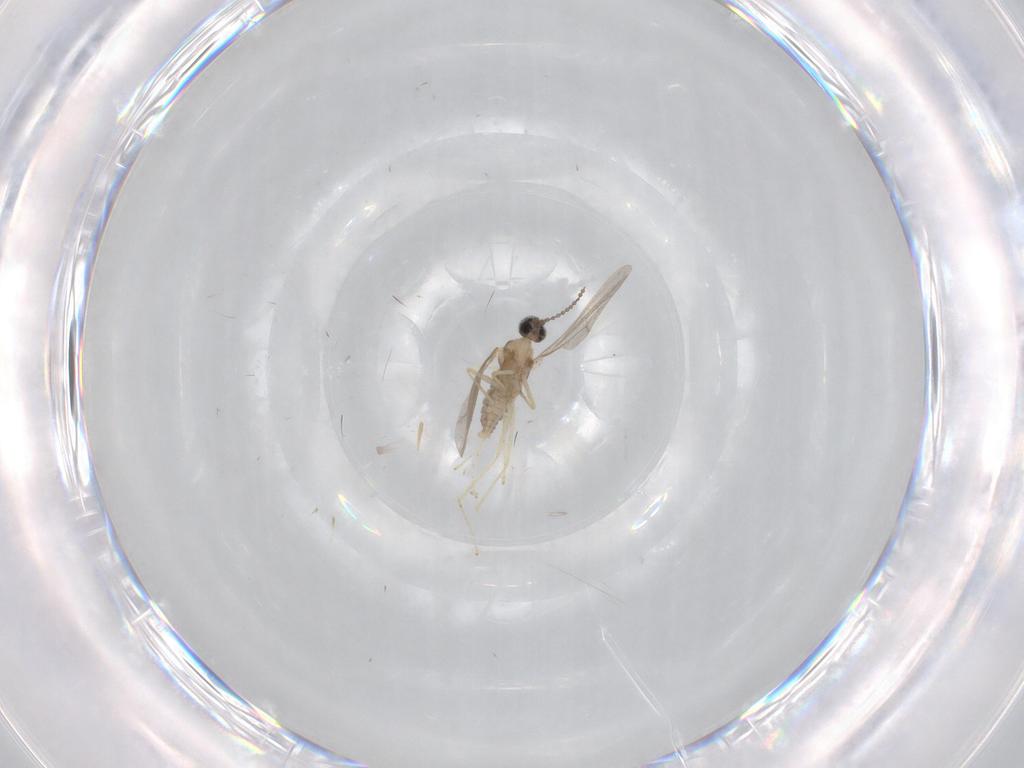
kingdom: Animalia
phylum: Arthropoda
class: Insecta
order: Diptera
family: Cecidomyiidae
